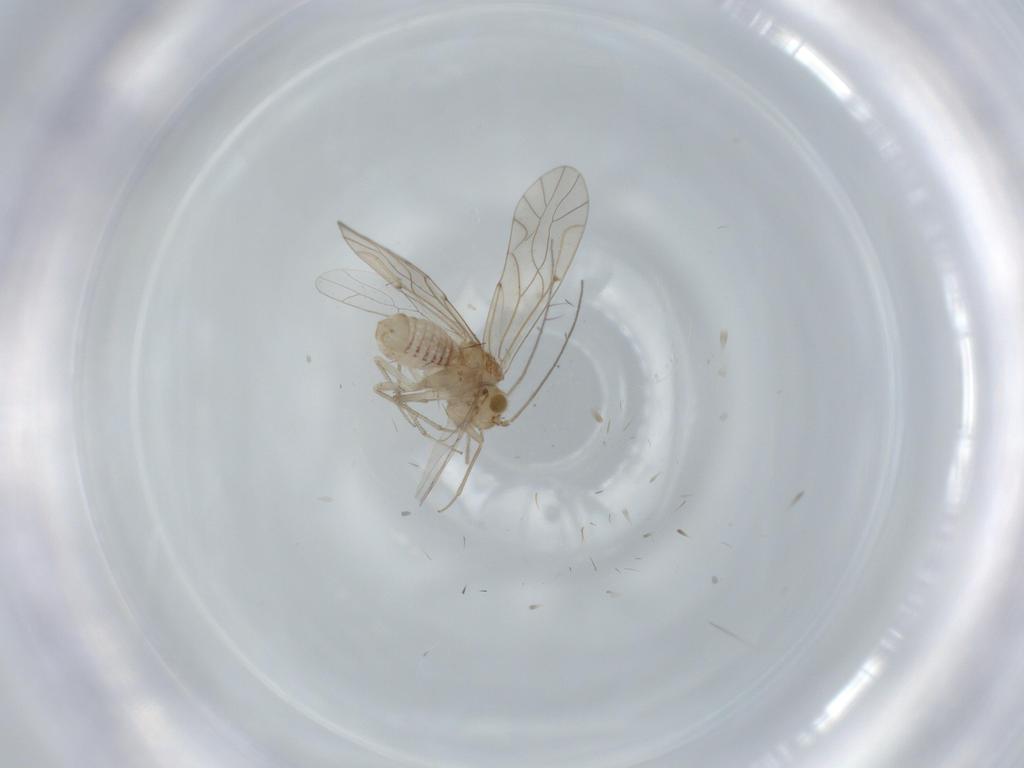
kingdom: Animalia
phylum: Arthropoda
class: Insecta
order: Psocodea
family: Lachesillidae
